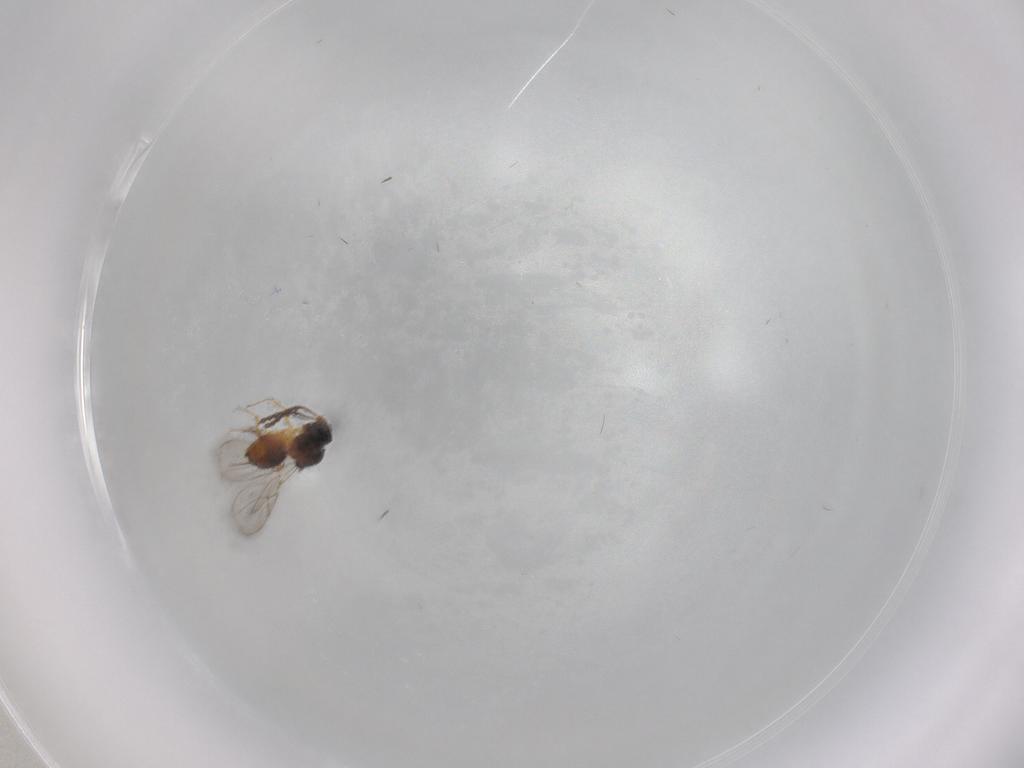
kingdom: Animalia
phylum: Arthropoda
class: Insecta
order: Hymenoptera
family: Figitidae
